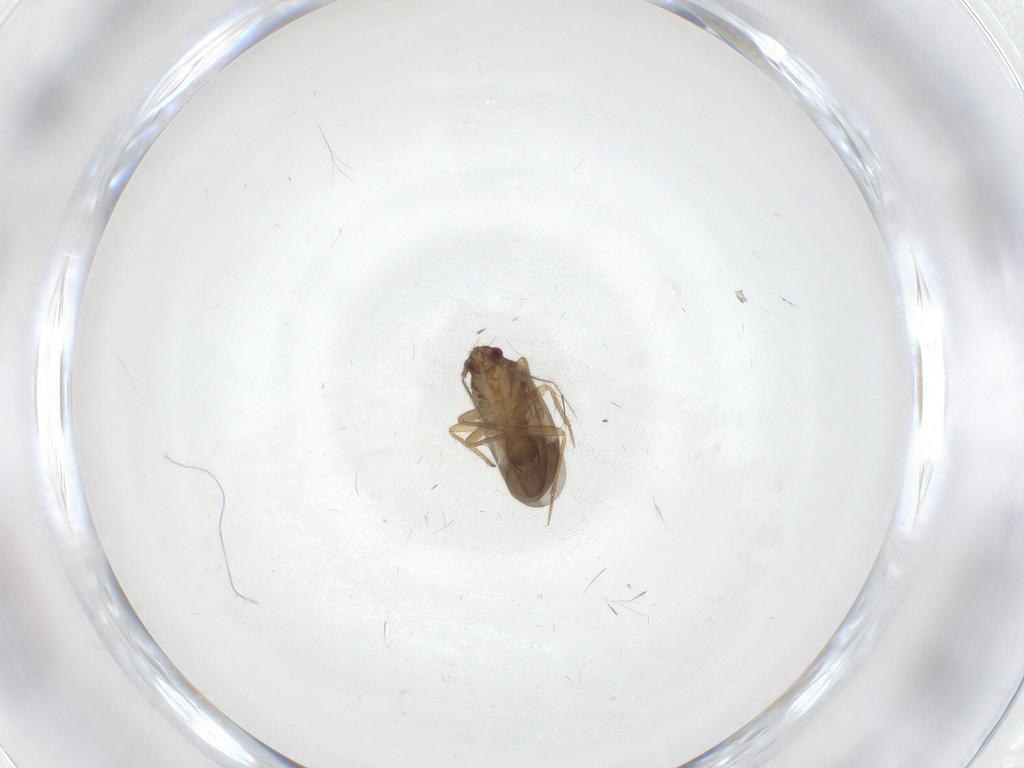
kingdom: Animalia
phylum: Arthropoda
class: Insecta
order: Hemiptera
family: Ceratocombidae
